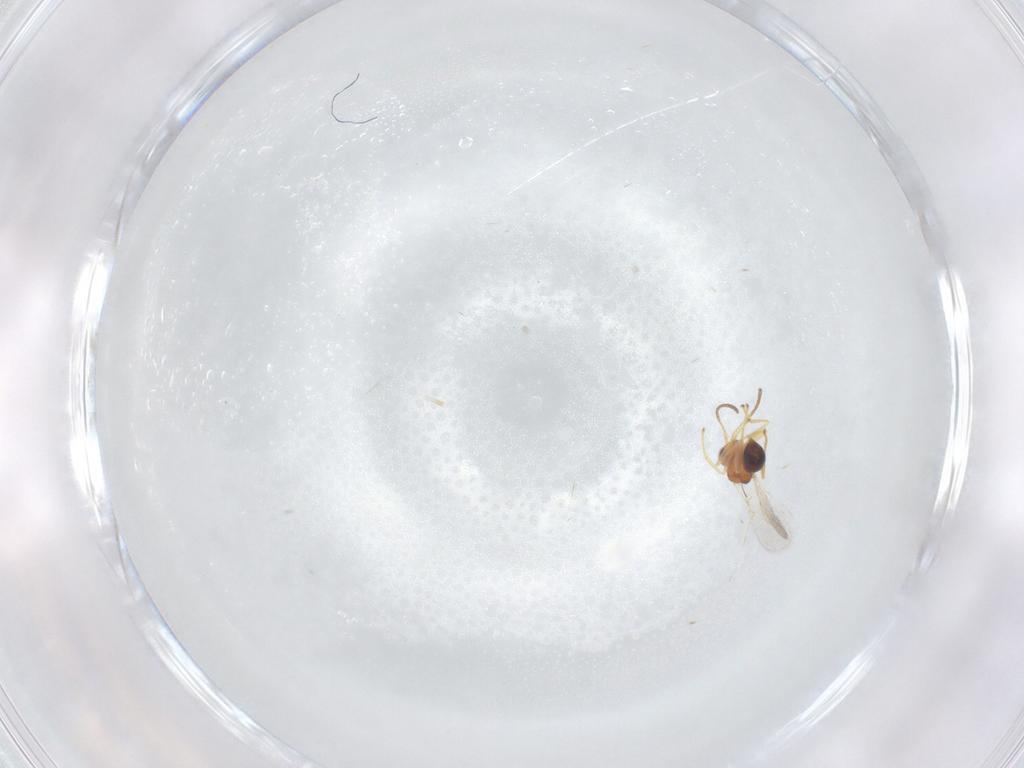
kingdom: Animalia
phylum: Arthropoda
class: Insecta
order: Hymenoptera
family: Figitidae
